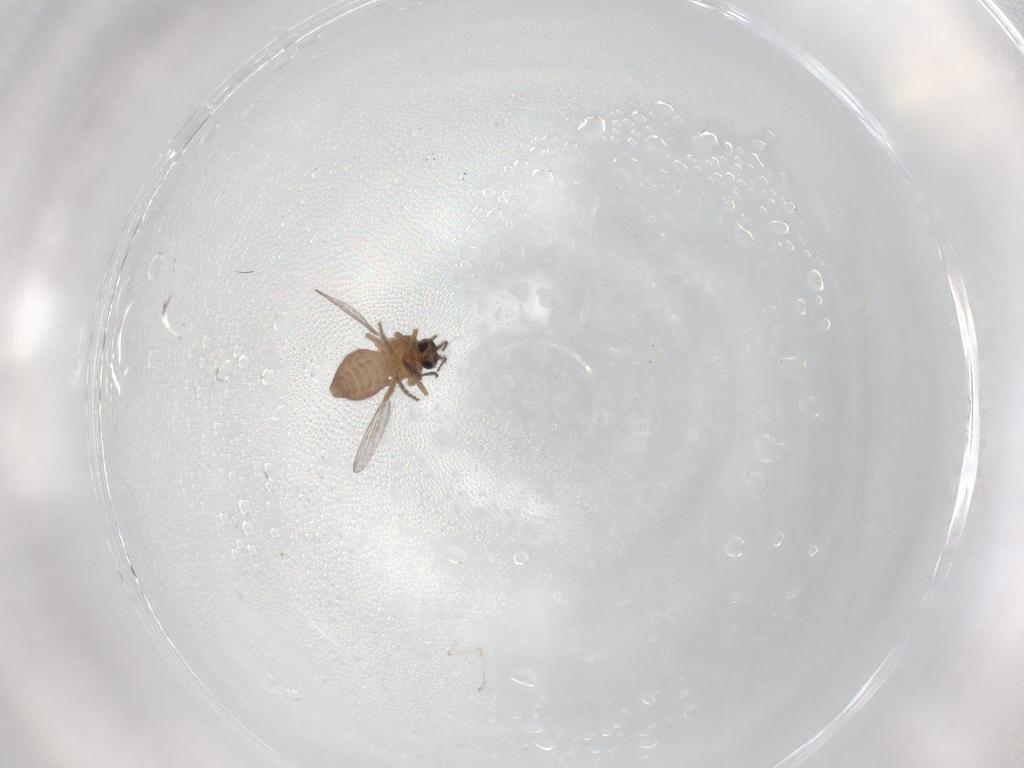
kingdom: Animalia
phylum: Arthropoda
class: Insecta
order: Diptera
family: Ceratopogonidae
